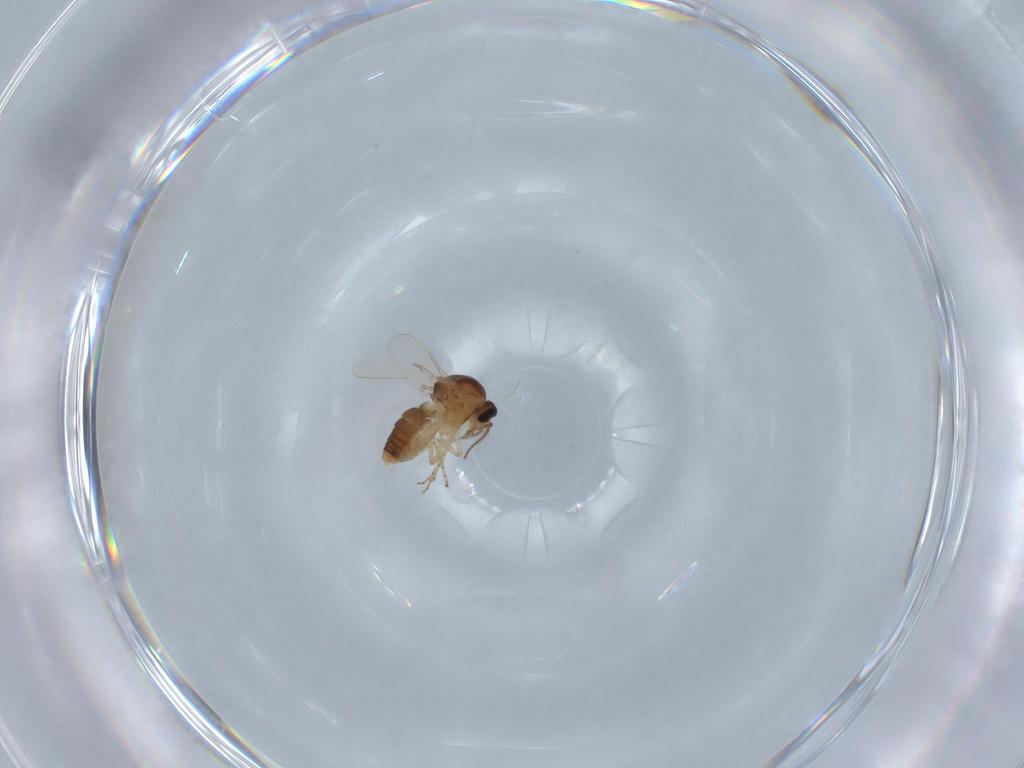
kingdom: Animalia
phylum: Arthropoda
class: Insecta
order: Diptera
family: Ceratopogonidae
